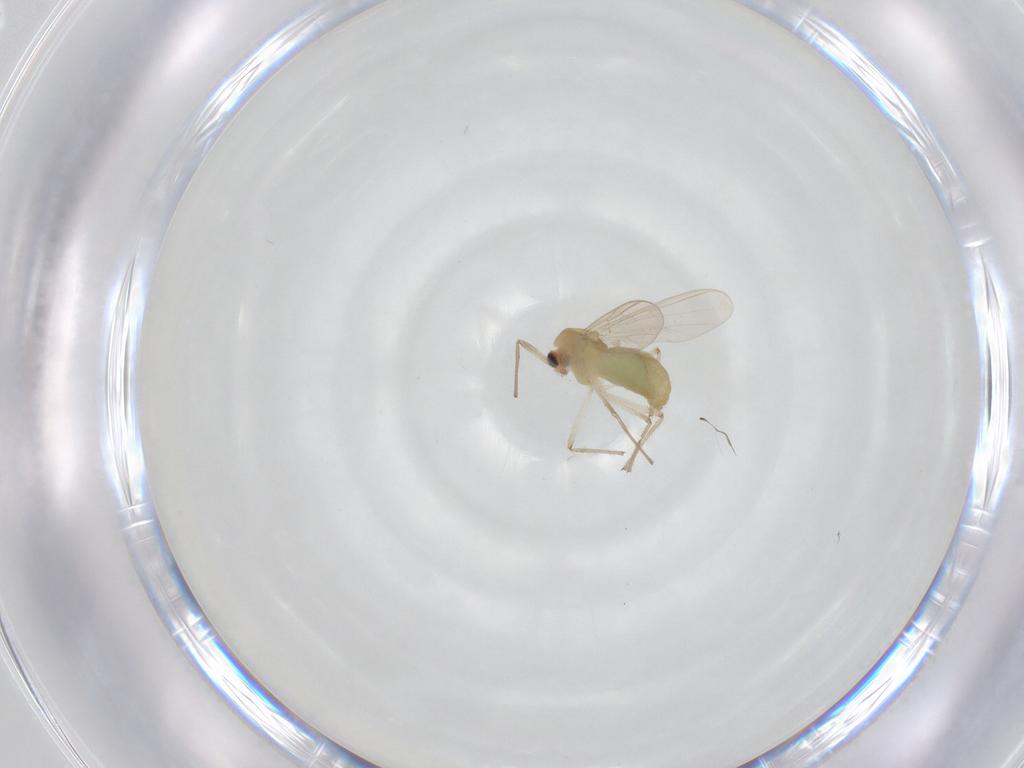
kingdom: Animalia
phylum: Arthropoda
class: Insecta
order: Diptera
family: Chironomidae
